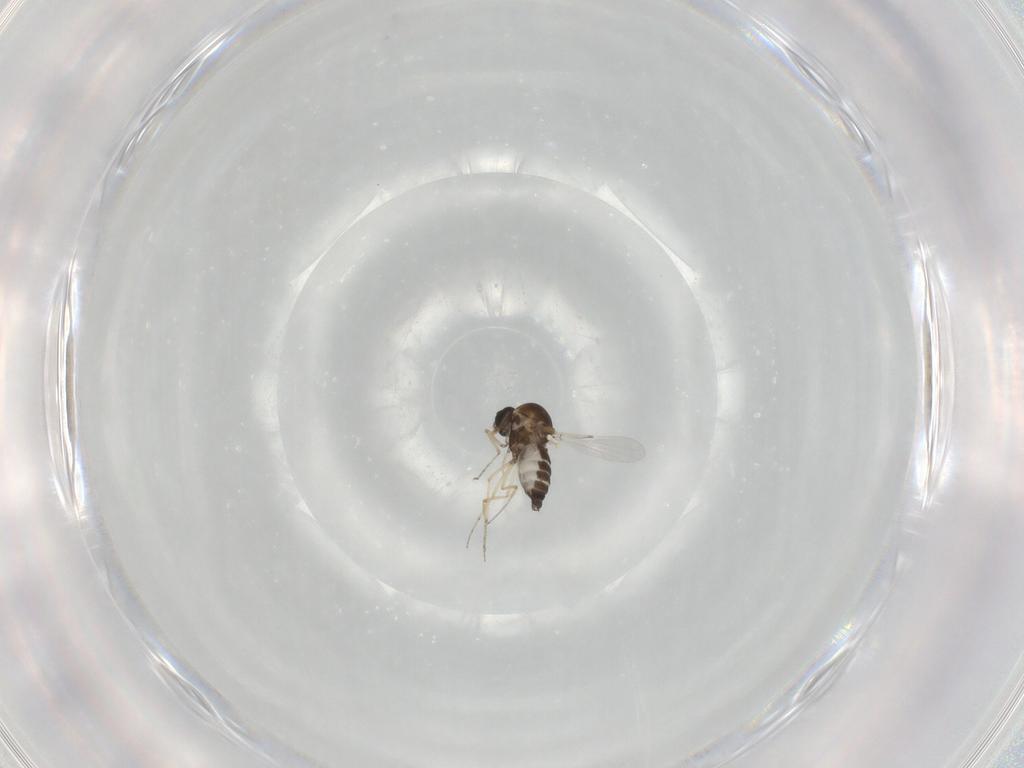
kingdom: Animalia
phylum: Arthropoda
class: Insecta
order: Diptera
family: Ceratopogonidae
